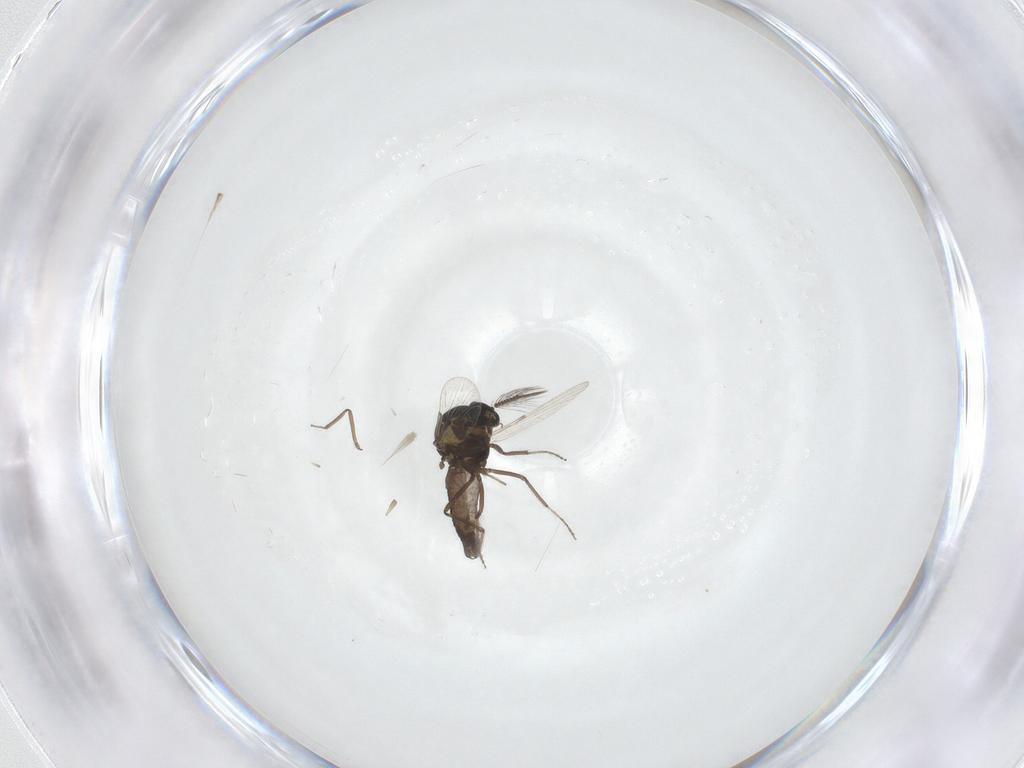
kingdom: Animalia
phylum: Arthropoda
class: Insecta
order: Diptera
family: Ceratopogonidae
